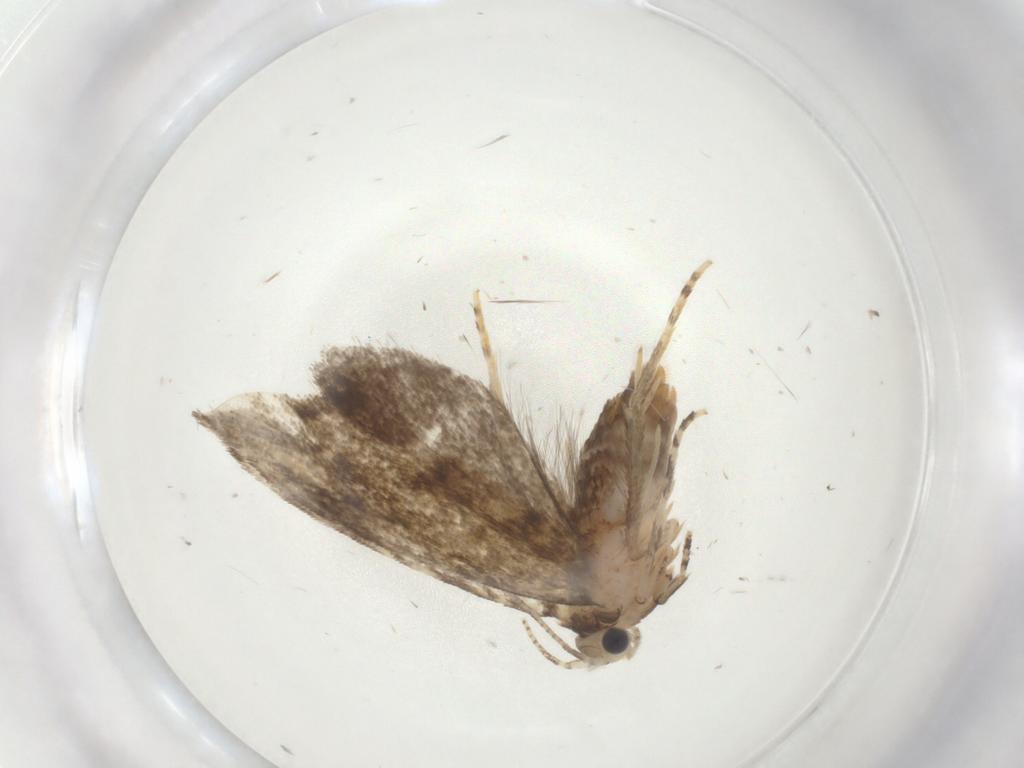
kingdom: Animalia
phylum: Arthropoda
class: Insecta
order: Lepidoptera
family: Tineidae
